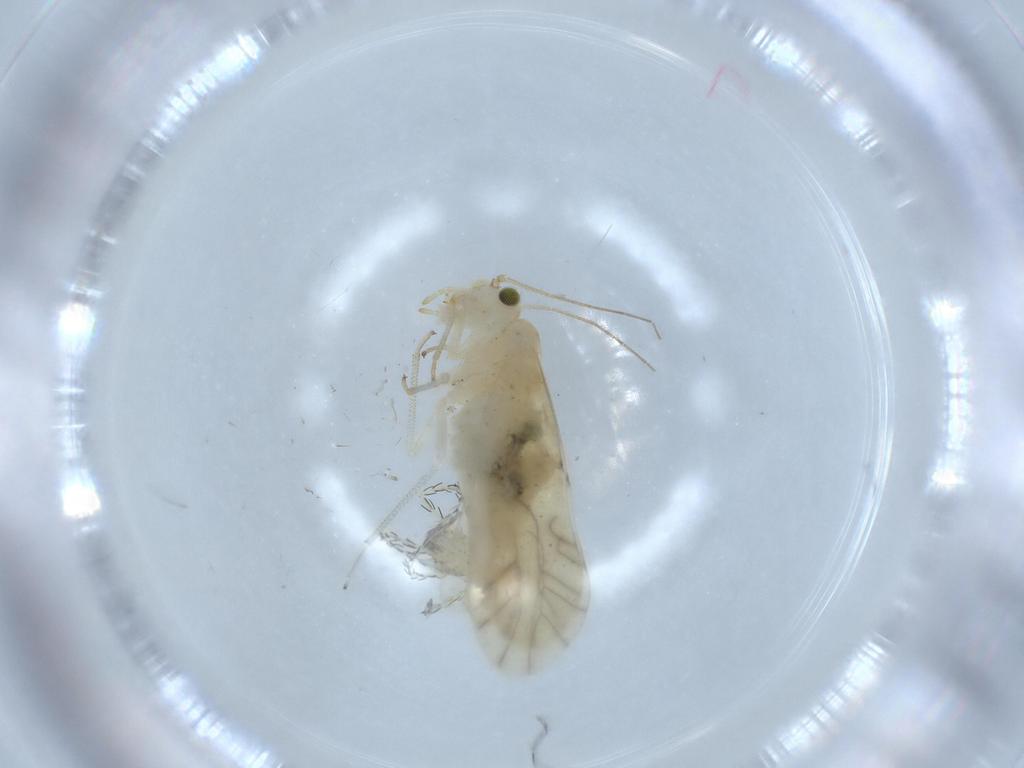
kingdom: Animalia
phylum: Arthropoda
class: Insecta
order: Psocodea
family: Caeciliusidae
